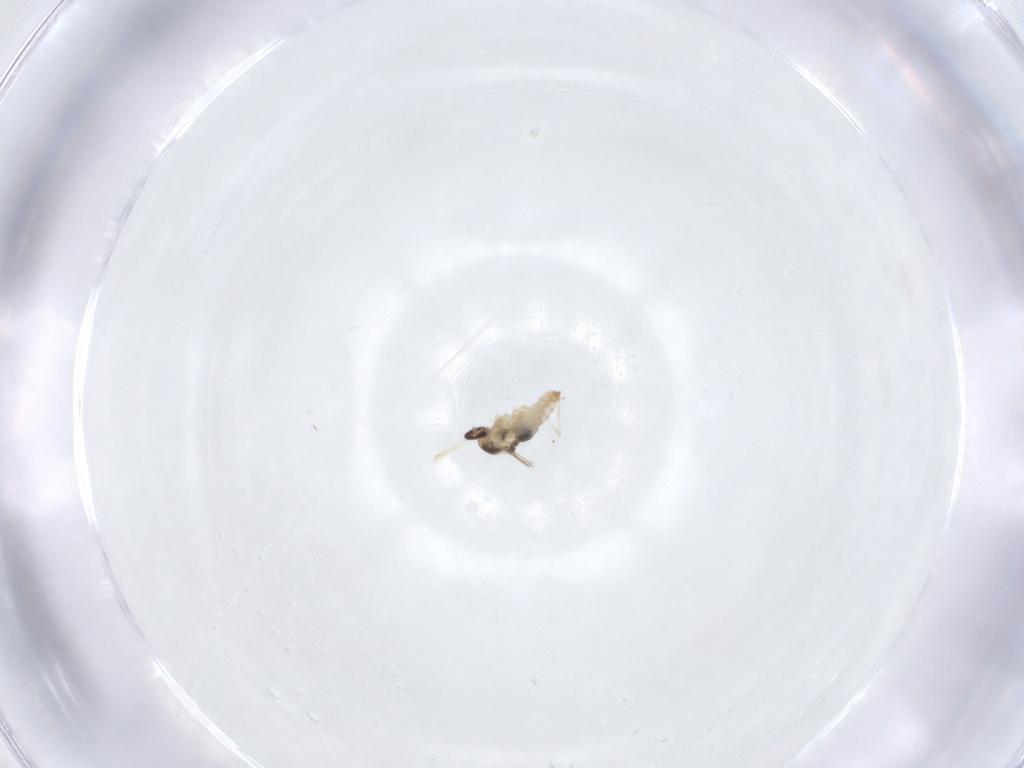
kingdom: Animalia
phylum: Arthropoda
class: Insecta
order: Diptera
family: Cecidomyiidae
